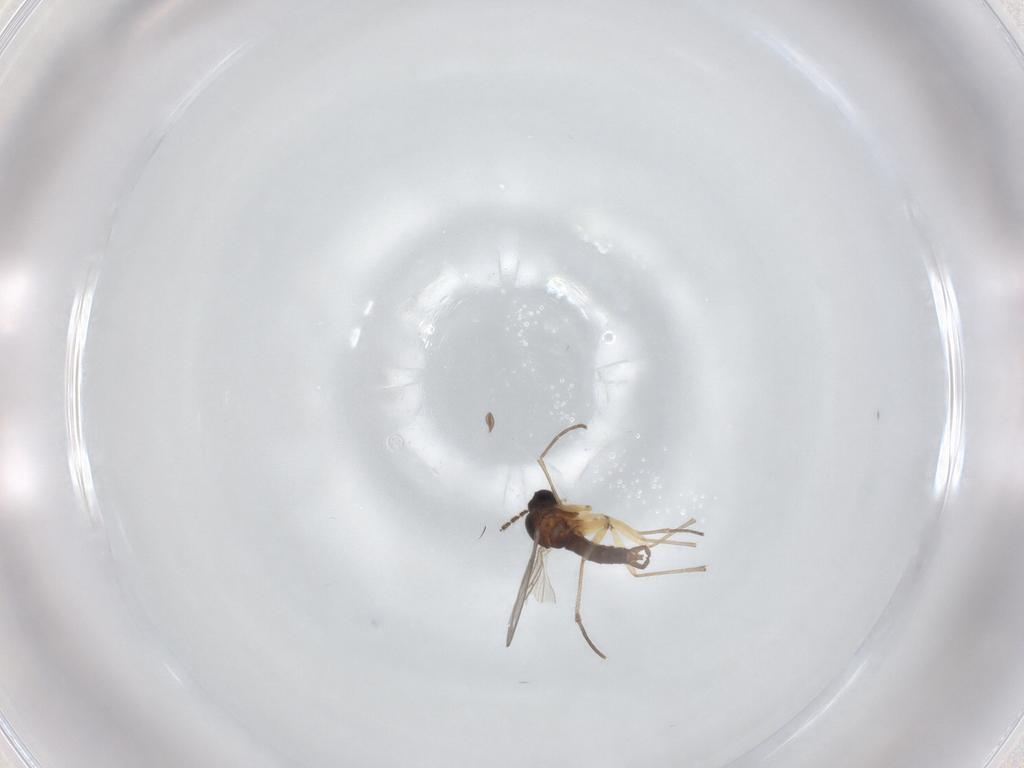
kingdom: Animalia
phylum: Arthropoda
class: Insecta
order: Diptera
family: Sciaridae
